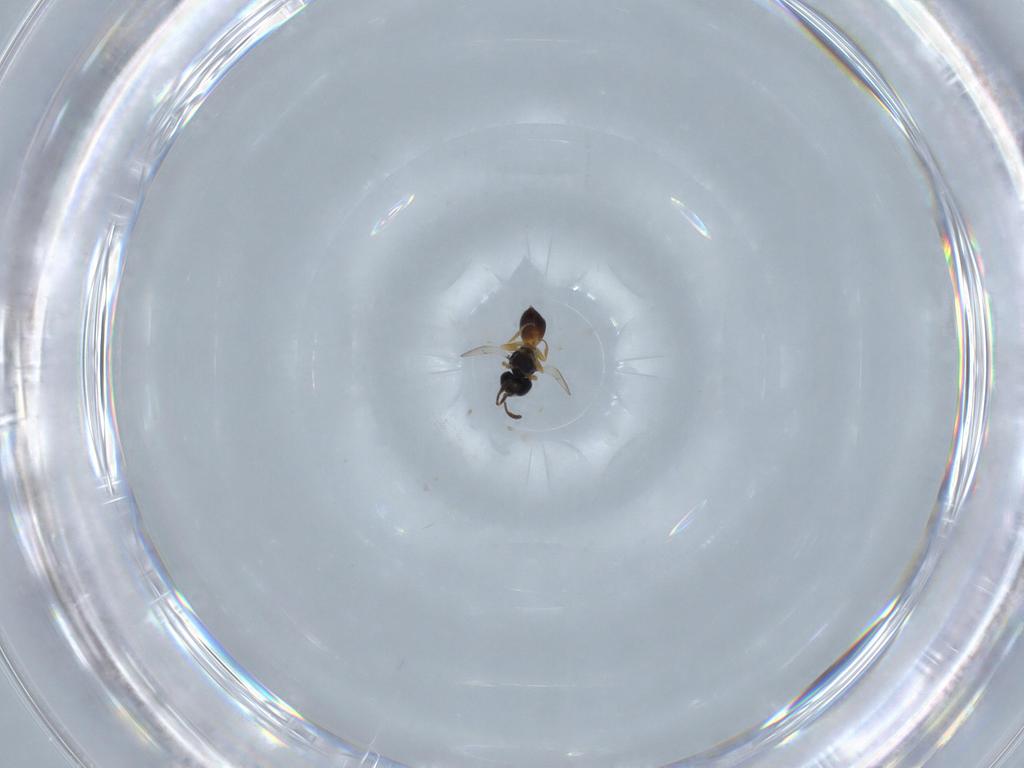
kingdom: Animalia
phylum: Arthropoda
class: Insecta
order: Hymenoptera
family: Scelionidae
